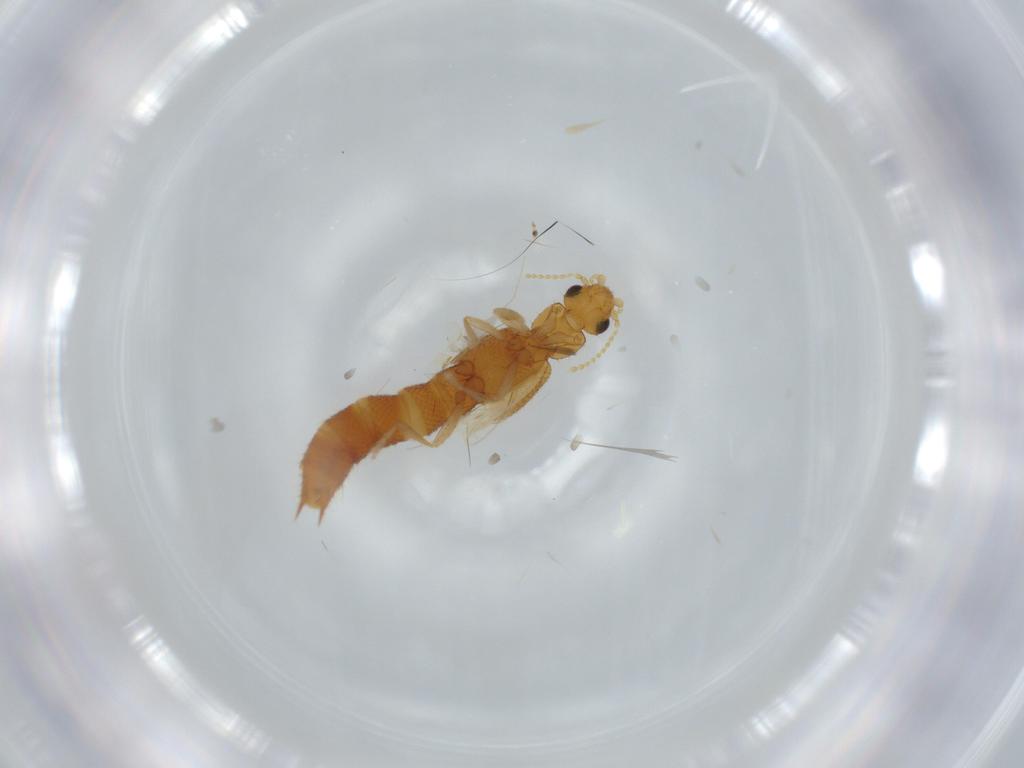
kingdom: Animalia
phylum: Arthropoda
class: Insecta
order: Coleoptera
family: Staphylinidae
